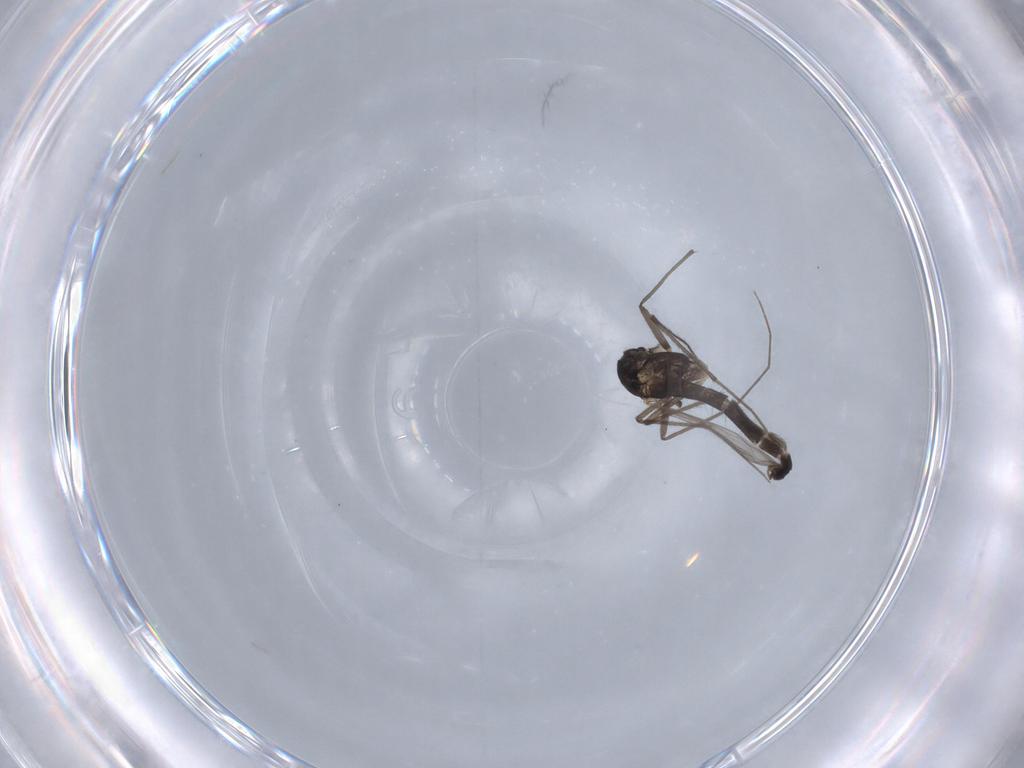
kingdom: Animalia
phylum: Arthropoda
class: Insecta
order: Diptera
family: Chironomidae
